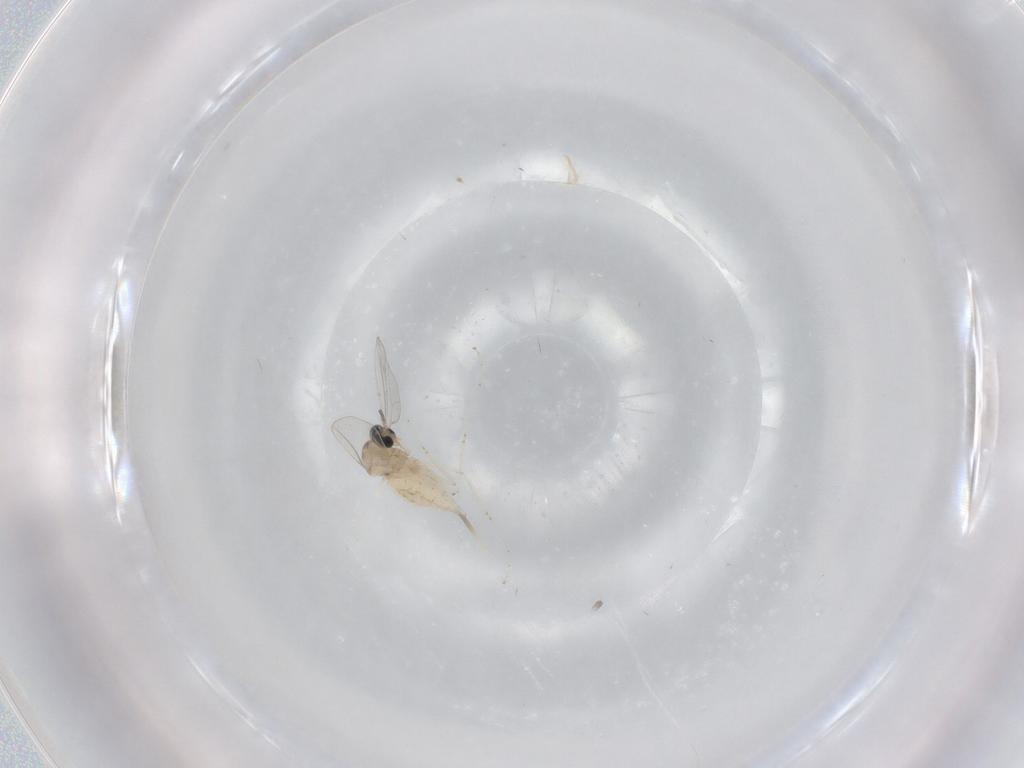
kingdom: Animalia
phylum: Arthropoda
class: Insecta
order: Diptera
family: Cecidomyiidae
